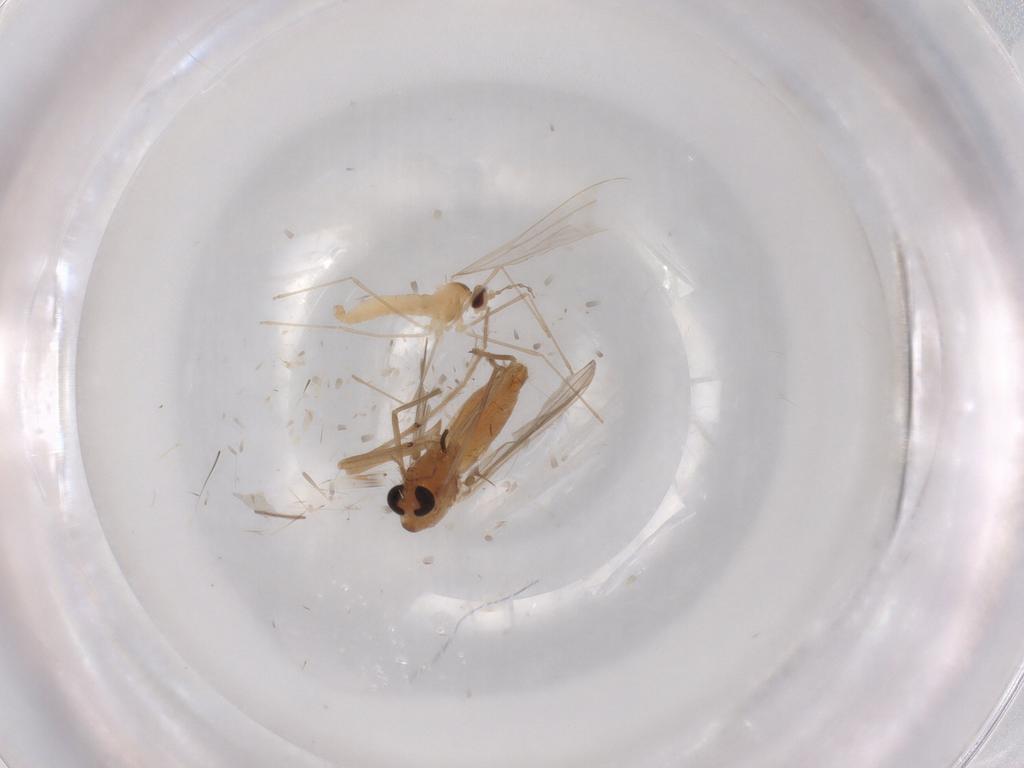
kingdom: Animalia
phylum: Arthropoda
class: Insecta
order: Diptera
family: Chironomidae
